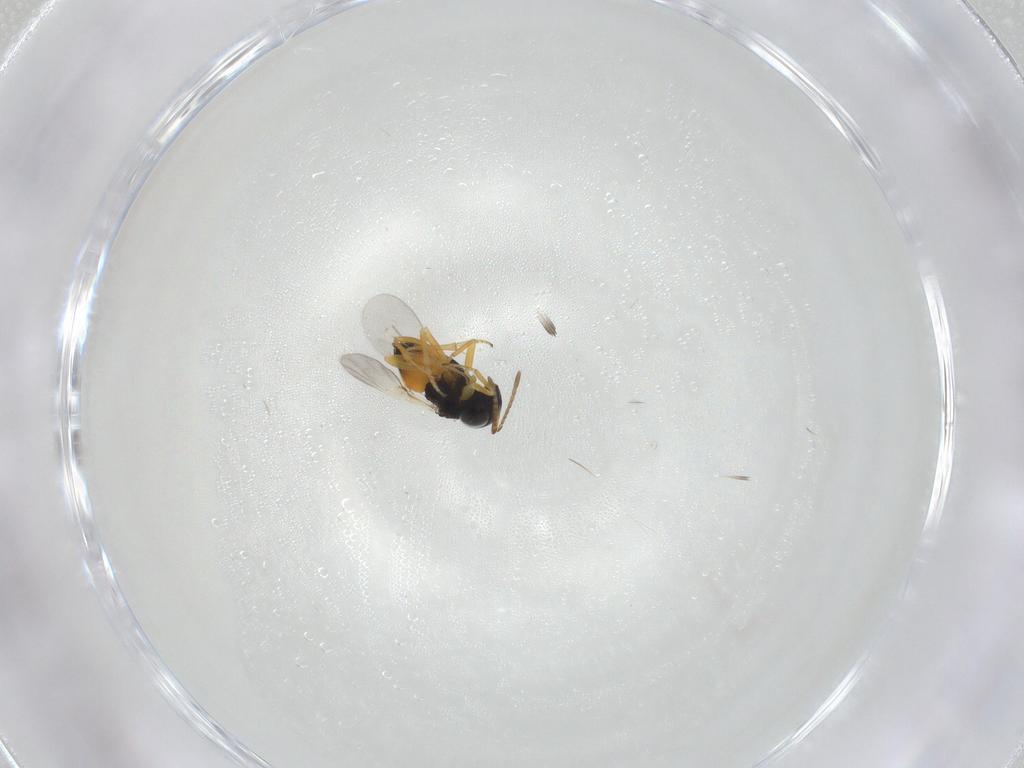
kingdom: Animalia
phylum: Arthropoda
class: Insecta
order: Hymenoptera
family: Encyrtidae
